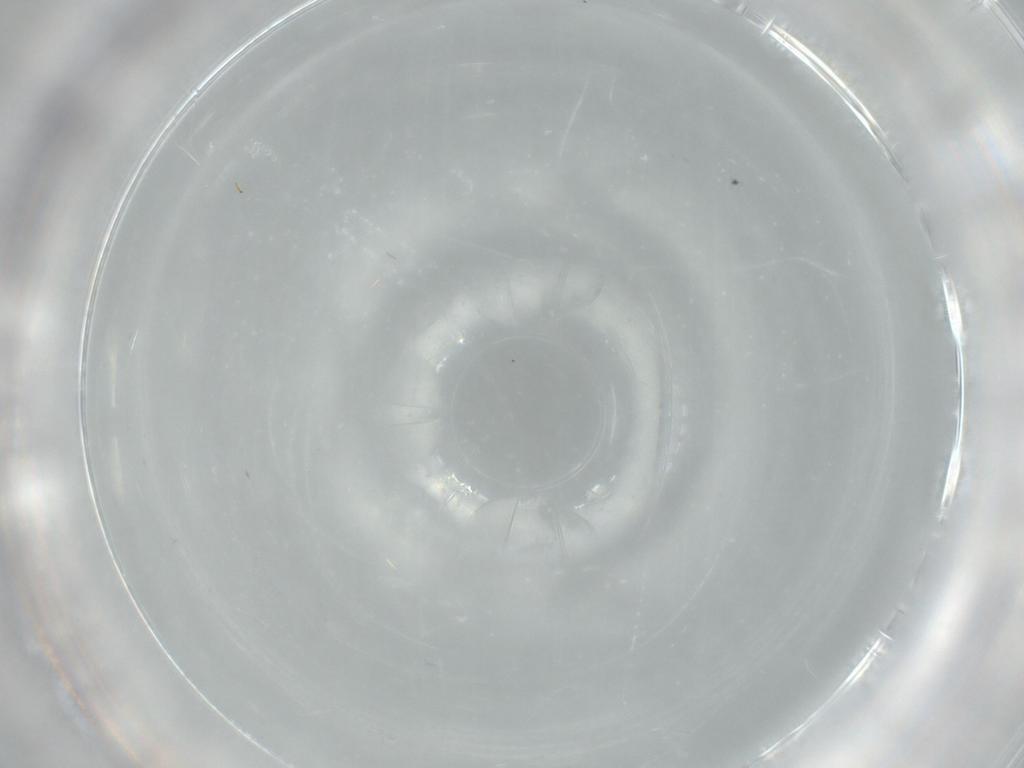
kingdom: Animalia
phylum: Arthropoda
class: Insecta
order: Hymenoptera
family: Scelionidae
